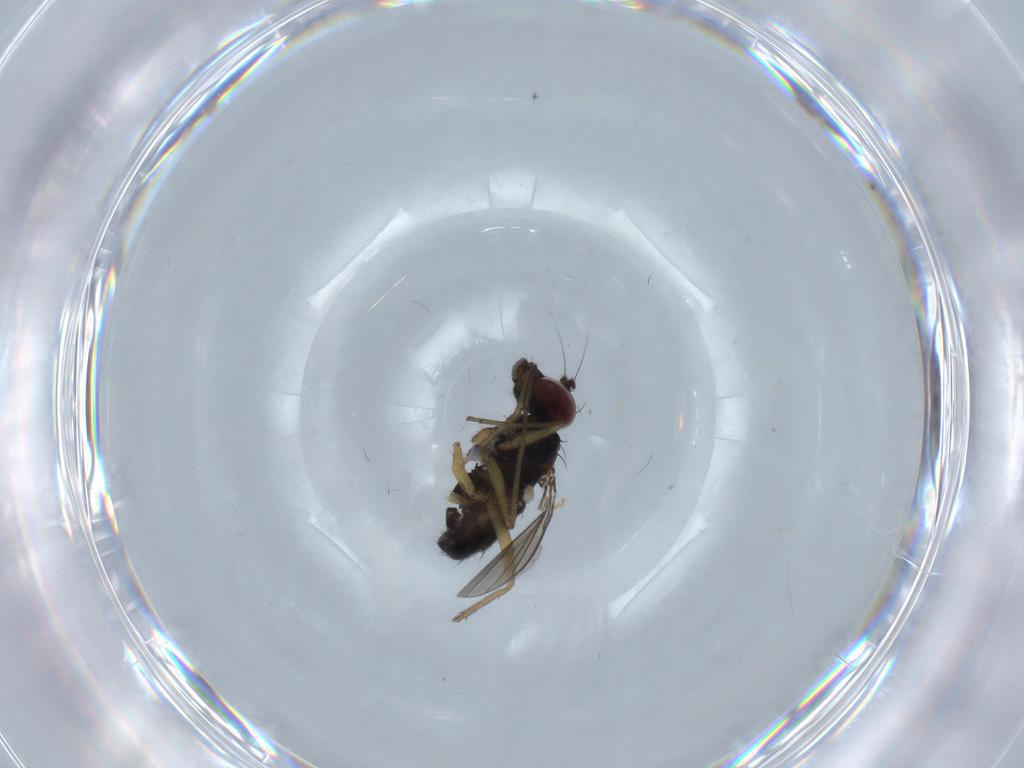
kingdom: Animalia
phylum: Arthropoda
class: Insecta
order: Diptera
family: Dolichopodidae
